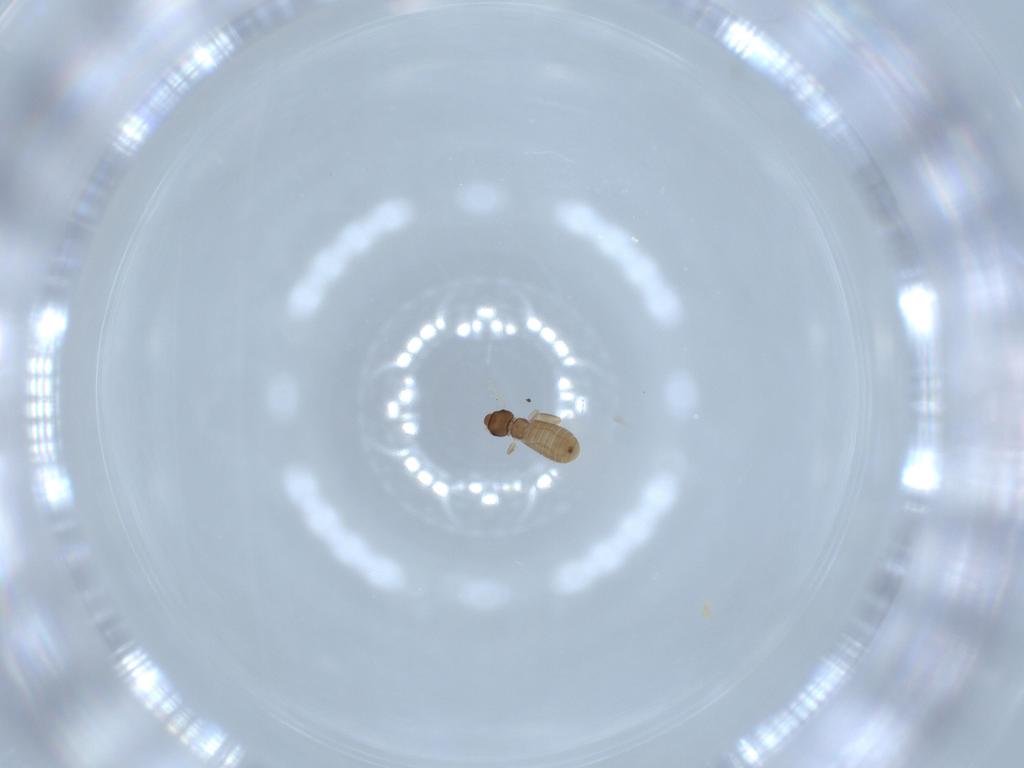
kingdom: Animalia
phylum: Arthropoda
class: Insecta
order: Psocodea
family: Liposcelididae
